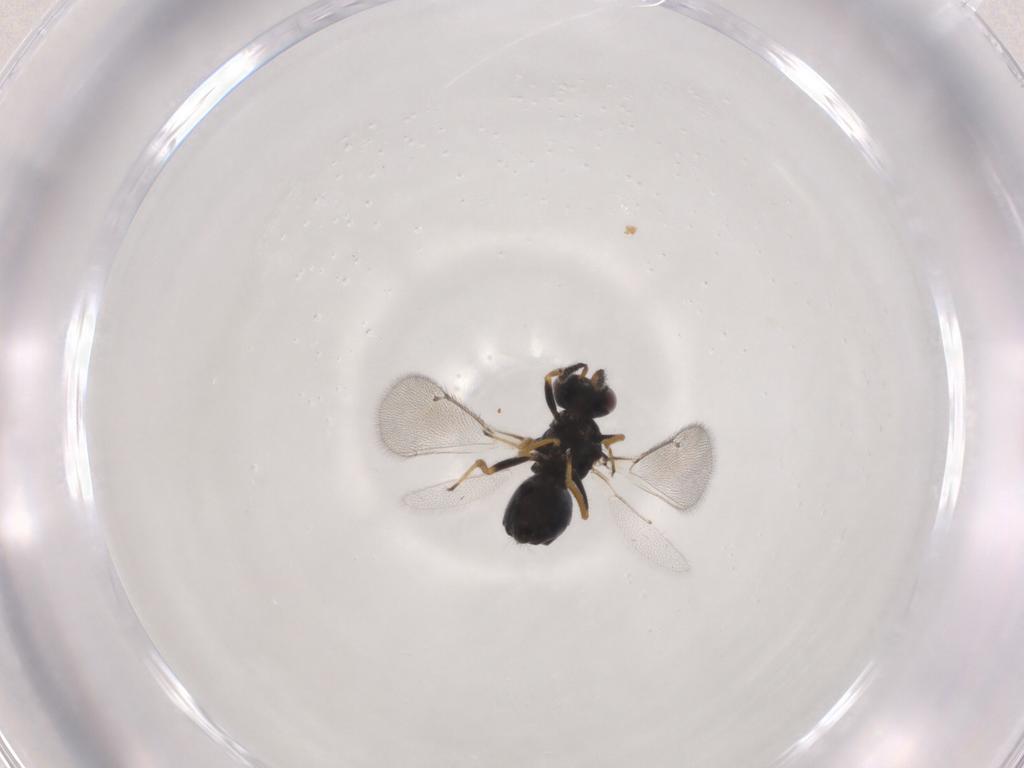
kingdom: Animalia
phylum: Arthropoda
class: Insecta
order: Hymenoptera
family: Eulophidae
